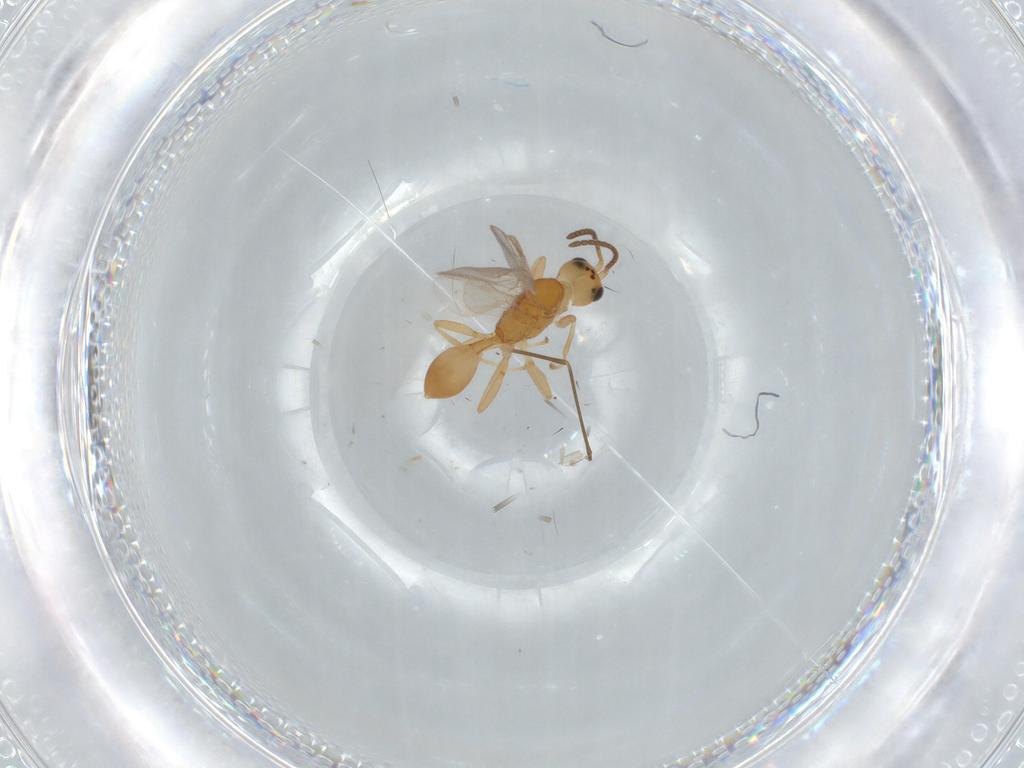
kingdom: Animalia
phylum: Arthropoda
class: Insecta
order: Hymenoptera
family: Braconidae
